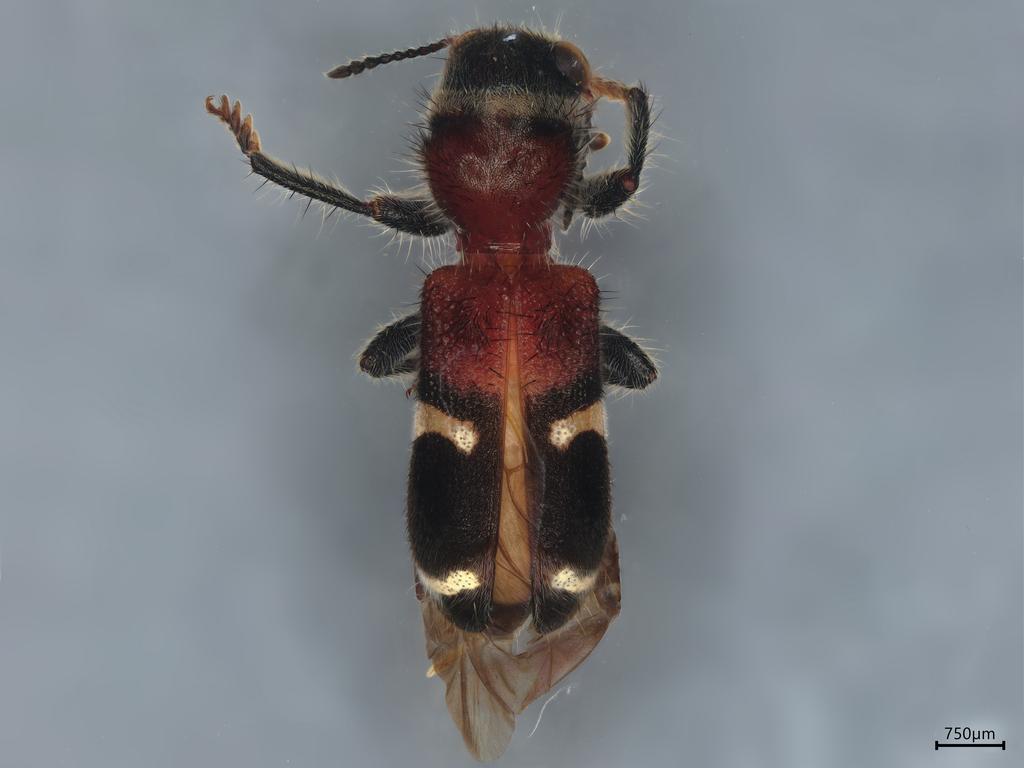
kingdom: Animalia
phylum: Arthropoda
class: Insecta
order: Coleoptera
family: Cleridae
